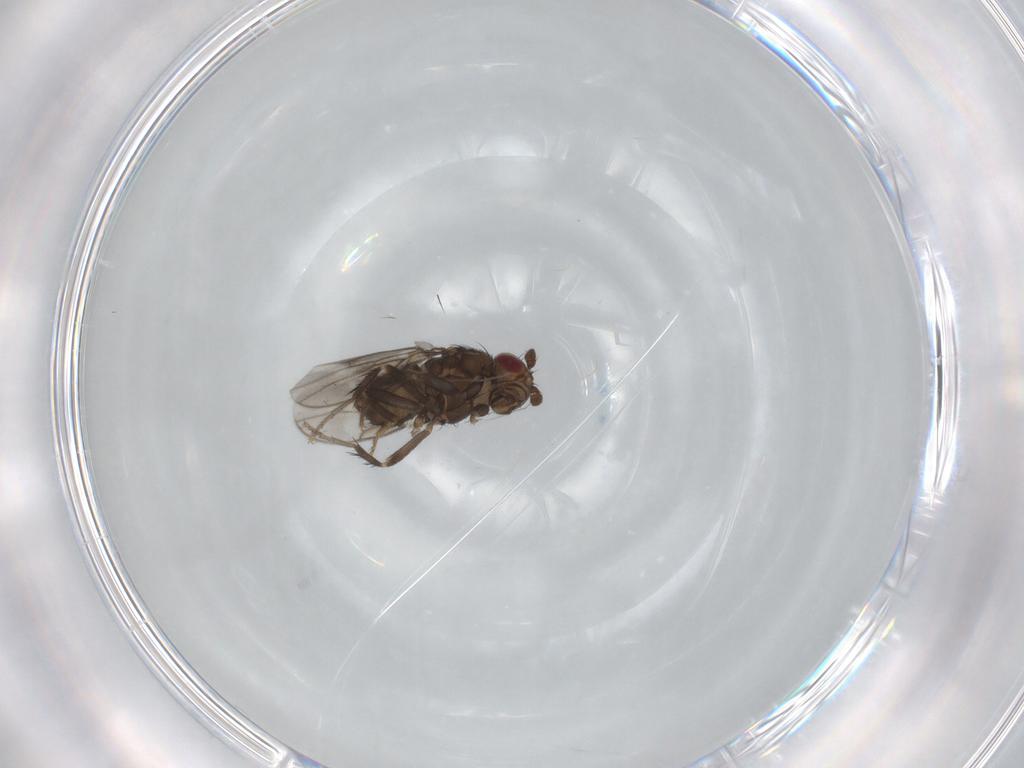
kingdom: Animalia
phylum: Arthropoda
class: Insecta
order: Diptera
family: Sphaeroceridae
